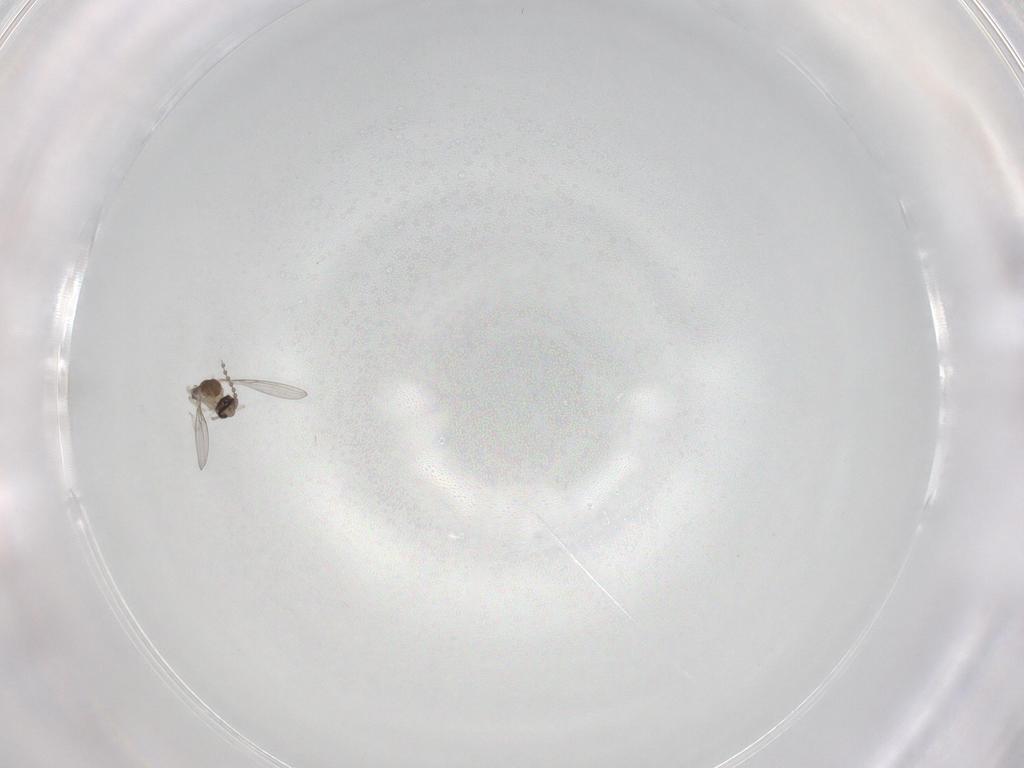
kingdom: Animalia
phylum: Arthropoda
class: Insecta
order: Diptera
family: Cecidomyiidae
